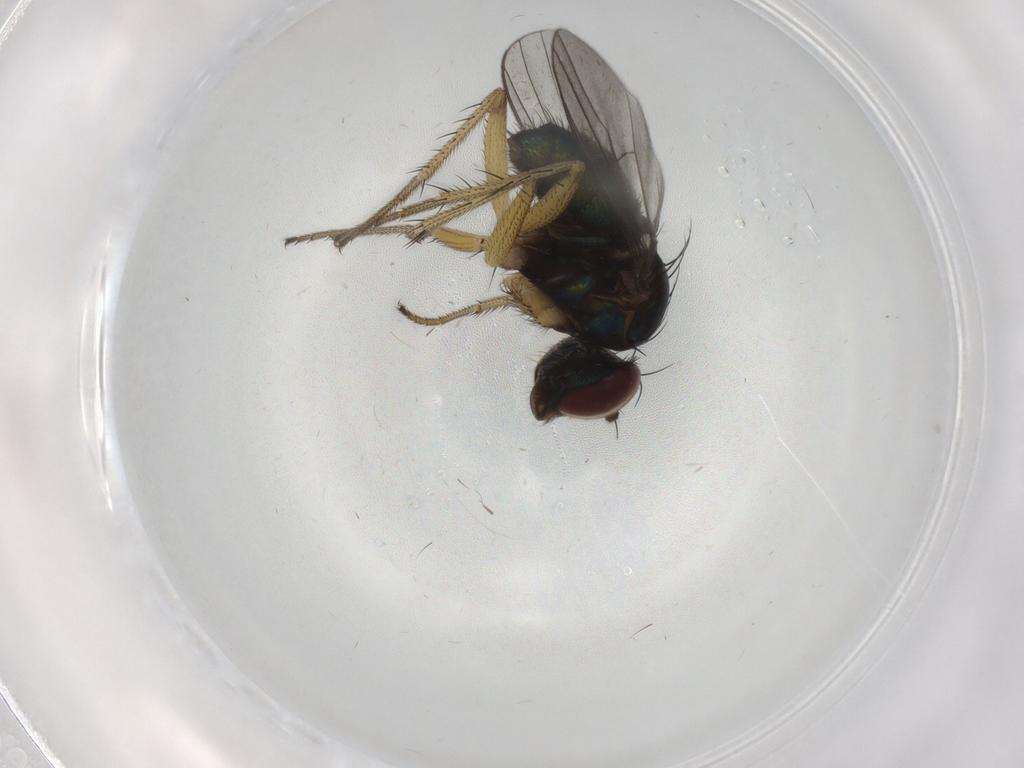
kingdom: Animalia
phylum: Arthropoda
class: Insecta
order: Diptera
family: Dolichopodidae
